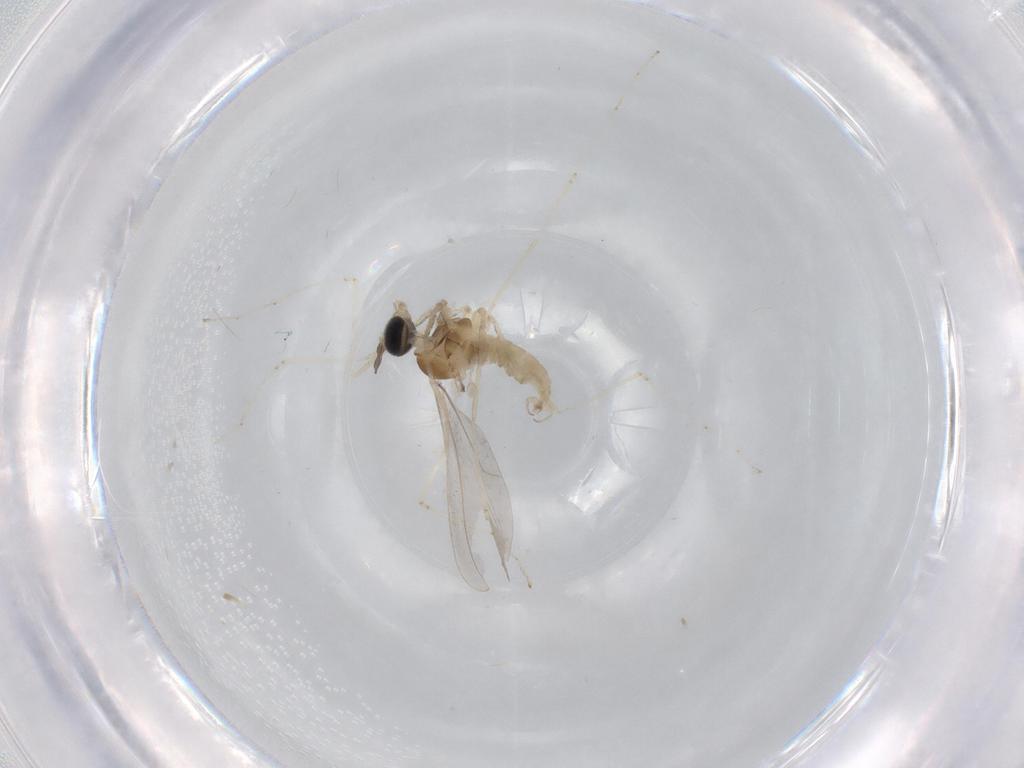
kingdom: Animalia
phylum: Arthropoda
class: Insecta
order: Diptera
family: Cecidomyiidae
